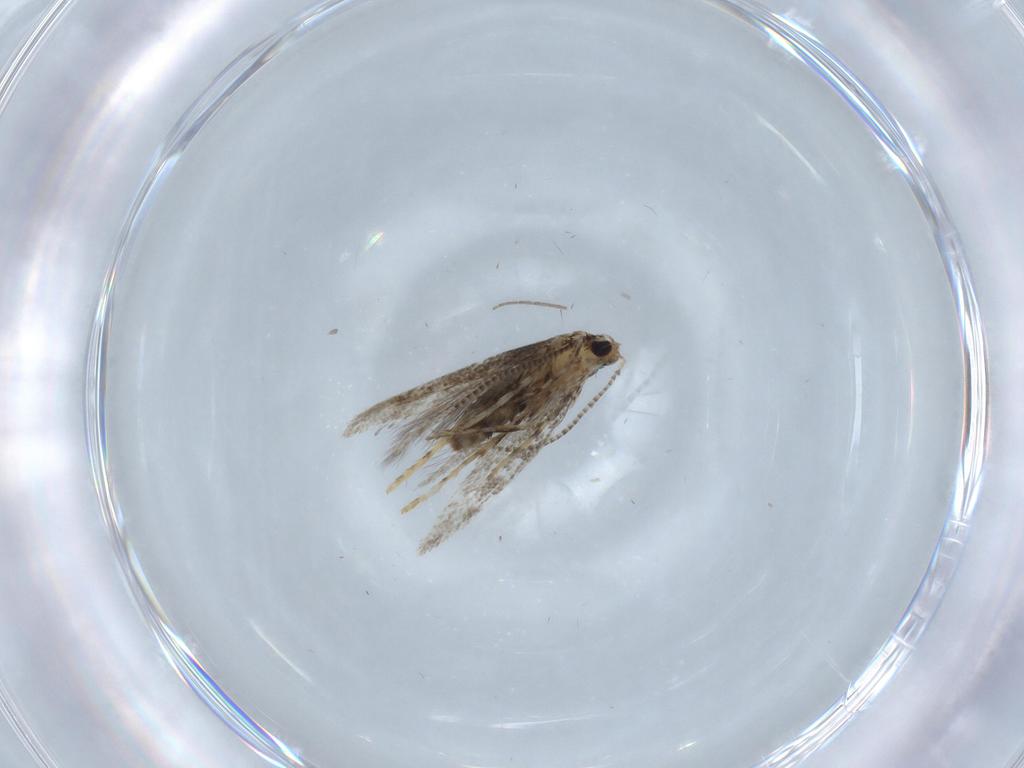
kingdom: Animalia
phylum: Arthropoda
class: Insecta
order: Lepidoptera
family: Gracillariidae
